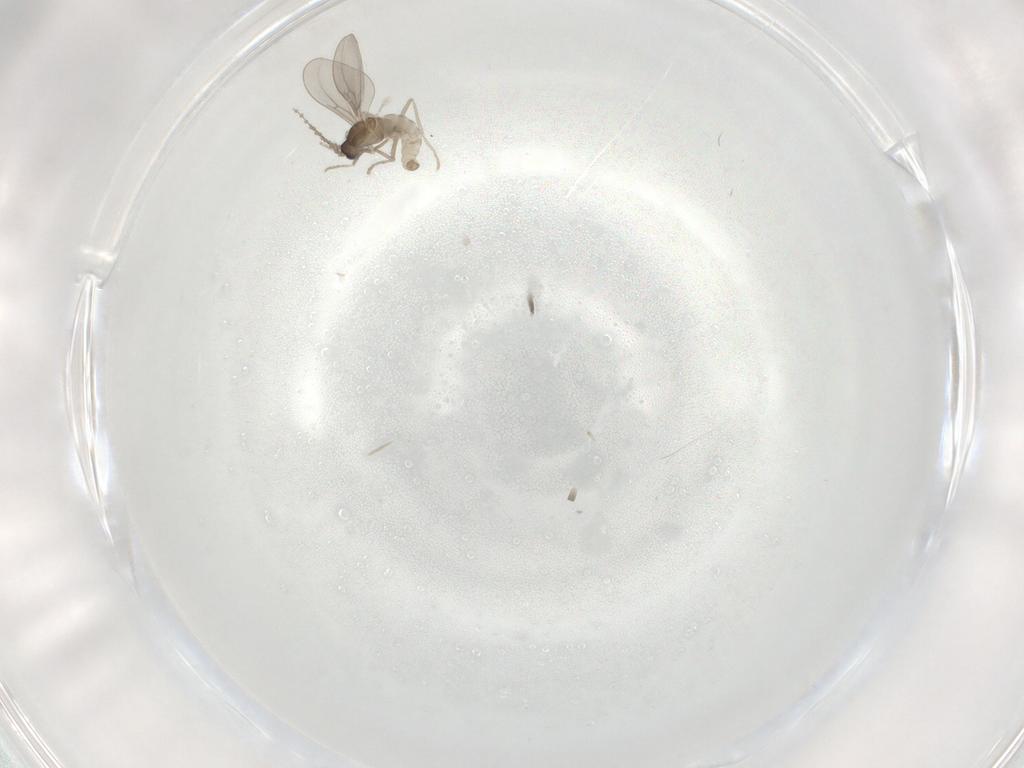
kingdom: Animalia
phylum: Arthropoda
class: Insecta
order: Diptera
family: Cecidomyiidae
